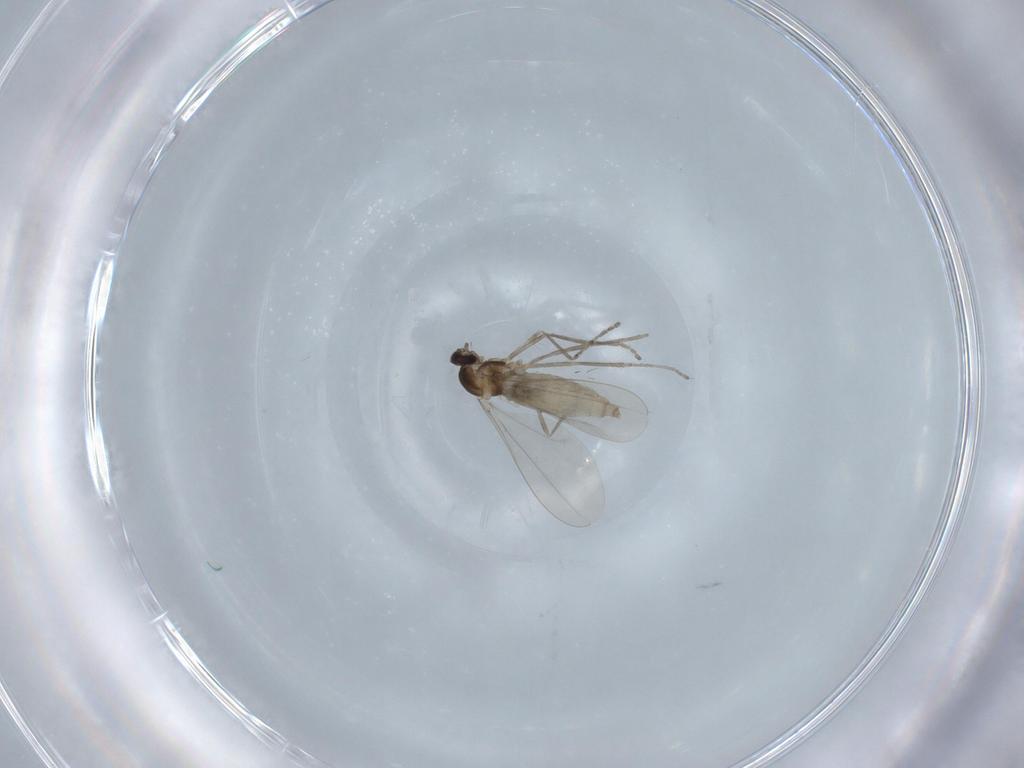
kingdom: Animalia
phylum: Arthropoda
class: Insecta
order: Diptera
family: Cecidomyiidae
